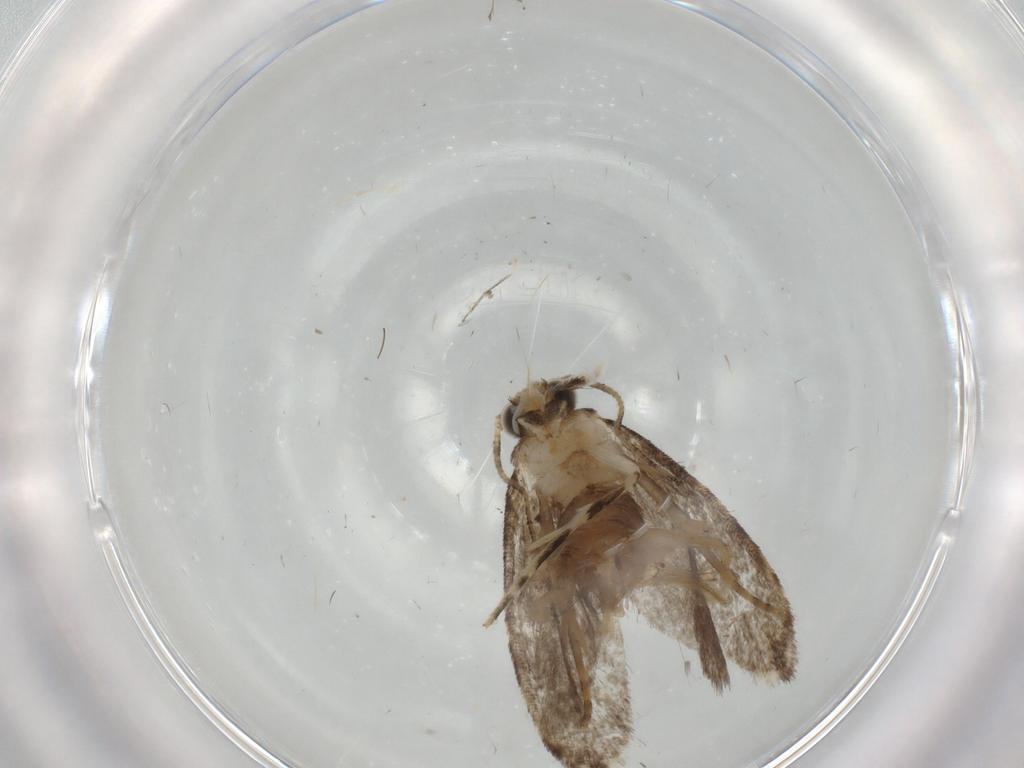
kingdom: Animalia
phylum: Arthropoda
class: Insecta
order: Lepidoptera
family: Tineidae
